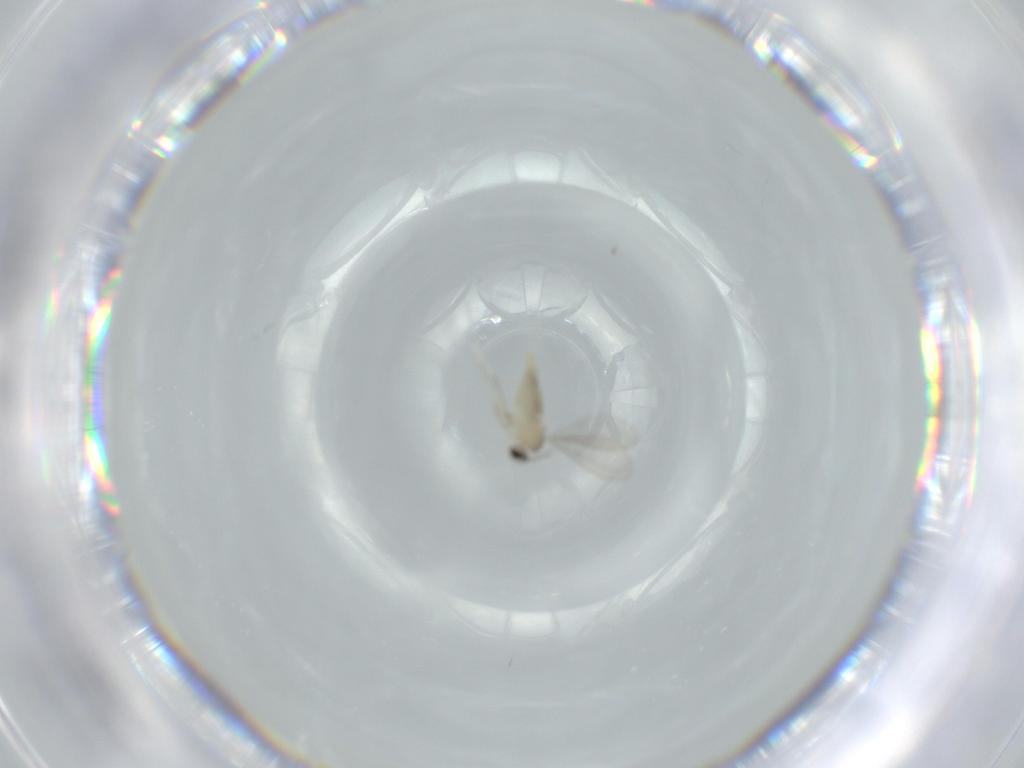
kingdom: Animalia
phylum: Arthropoda
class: Insecta
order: Diptera
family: Cecidomyiidae
